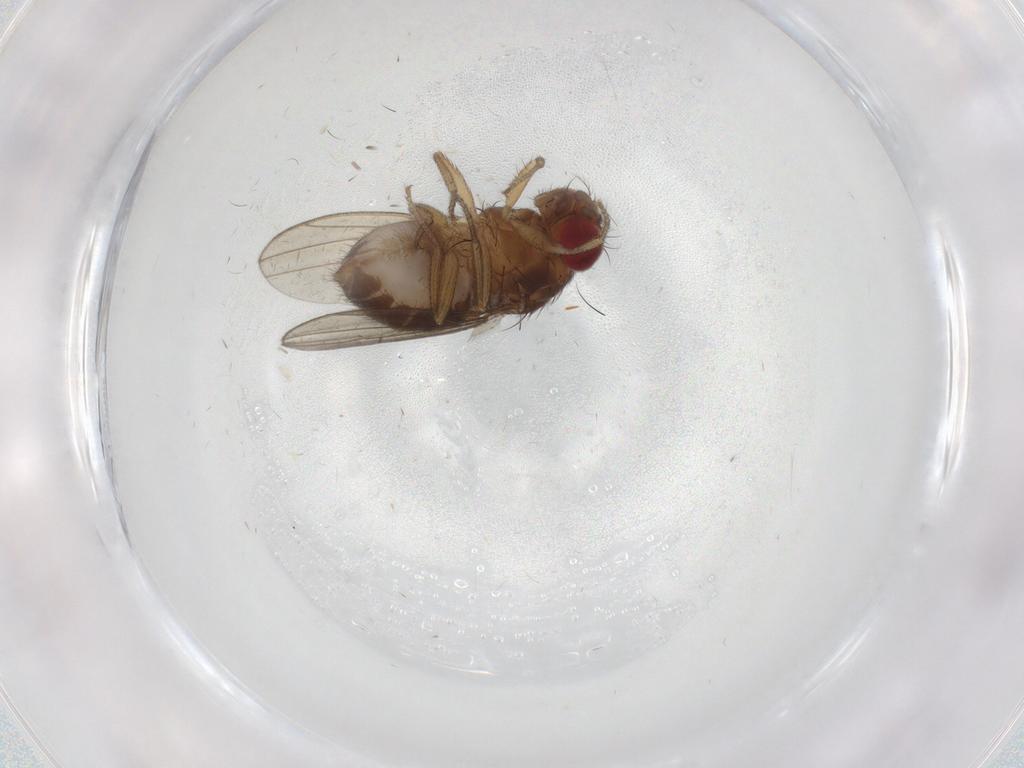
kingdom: Animalia
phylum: Arthropoda
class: Insecta
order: Diptera
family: Drosophilidae
